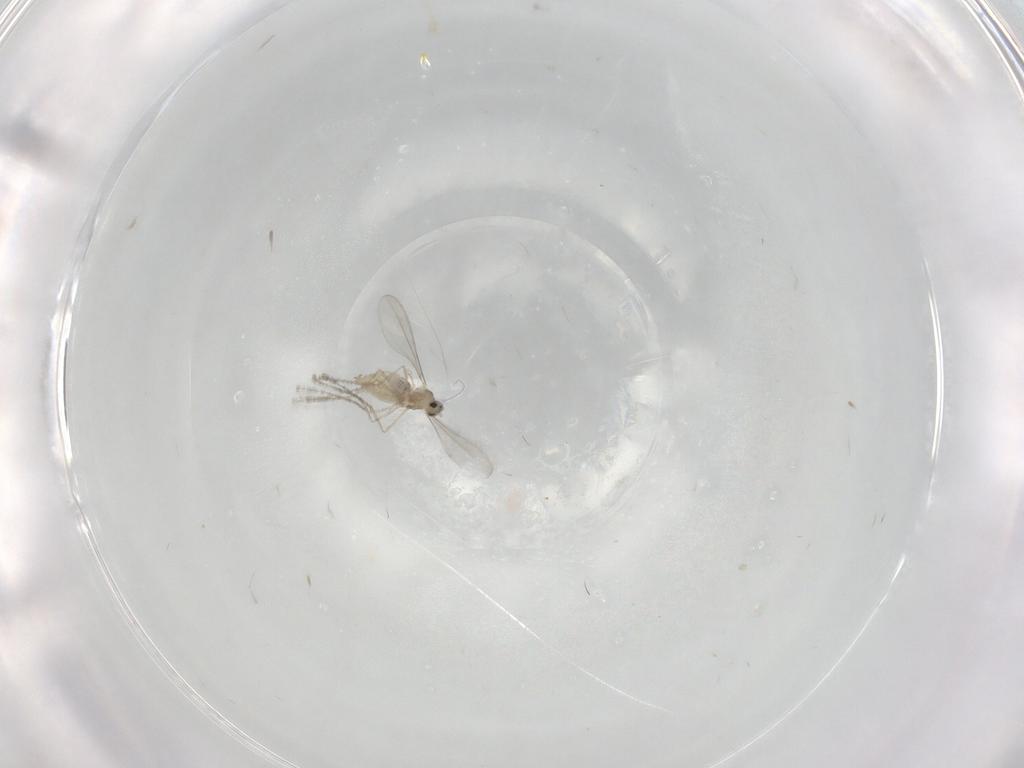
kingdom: Animalia
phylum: Arthropoda
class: Insecta
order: Diptera
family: Cecidomyiidae
